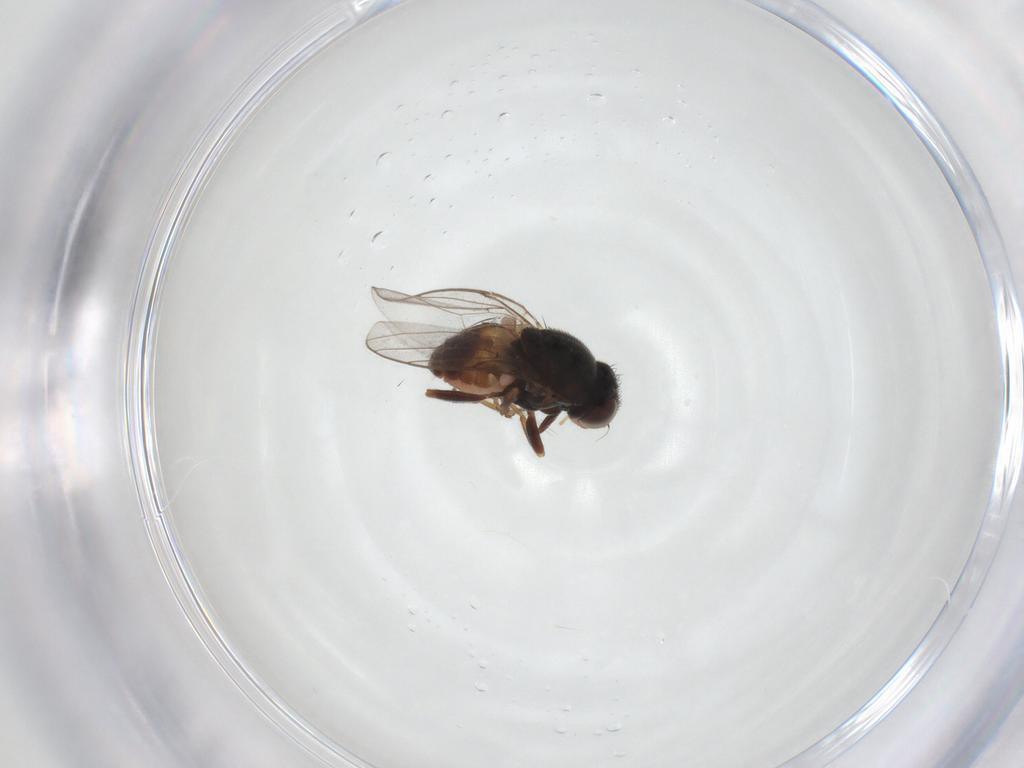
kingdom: Animalia
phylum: Arthropoda
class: Insecta
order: Diptera
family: Chloropidae
